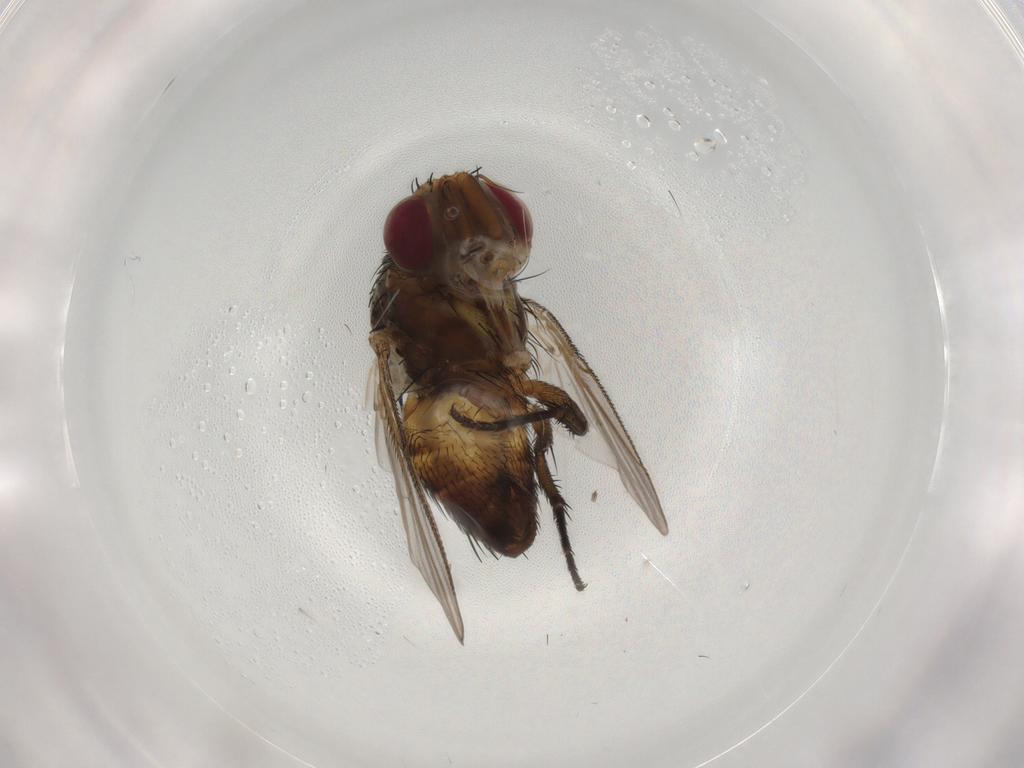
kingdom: Animalia
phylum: Arthropoda
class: Insecta
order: Diptera
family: Tachinidae
